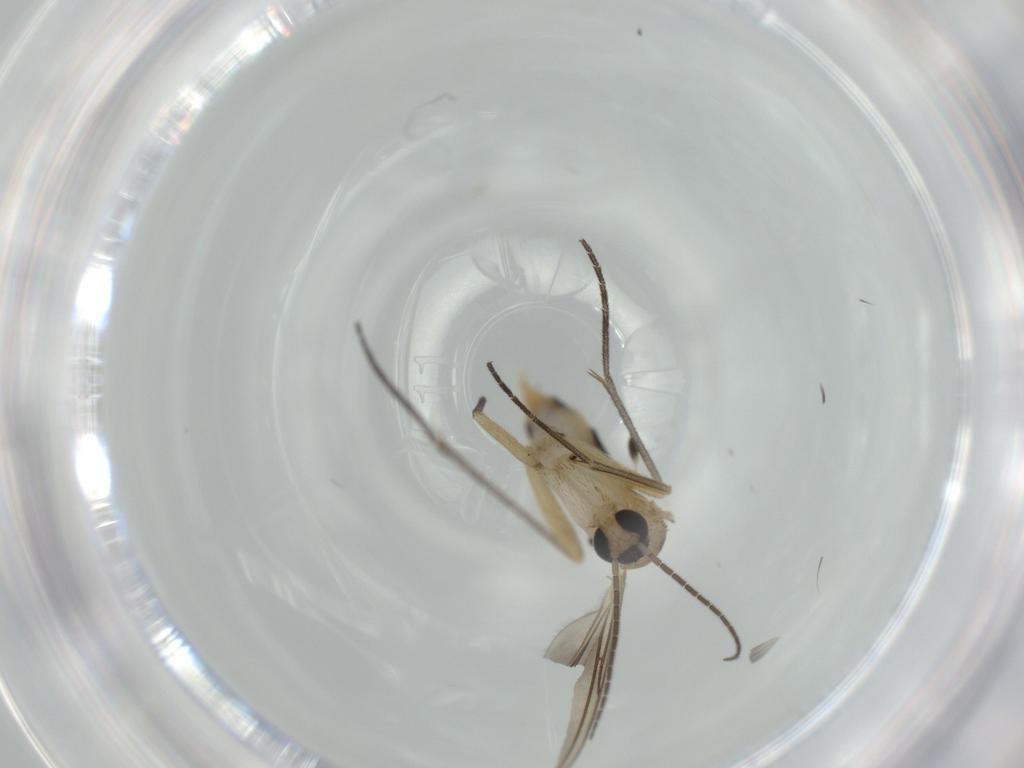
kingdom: Animalia
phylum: Arthropoda
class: Insecta
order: Diptera
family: Sciaridae
